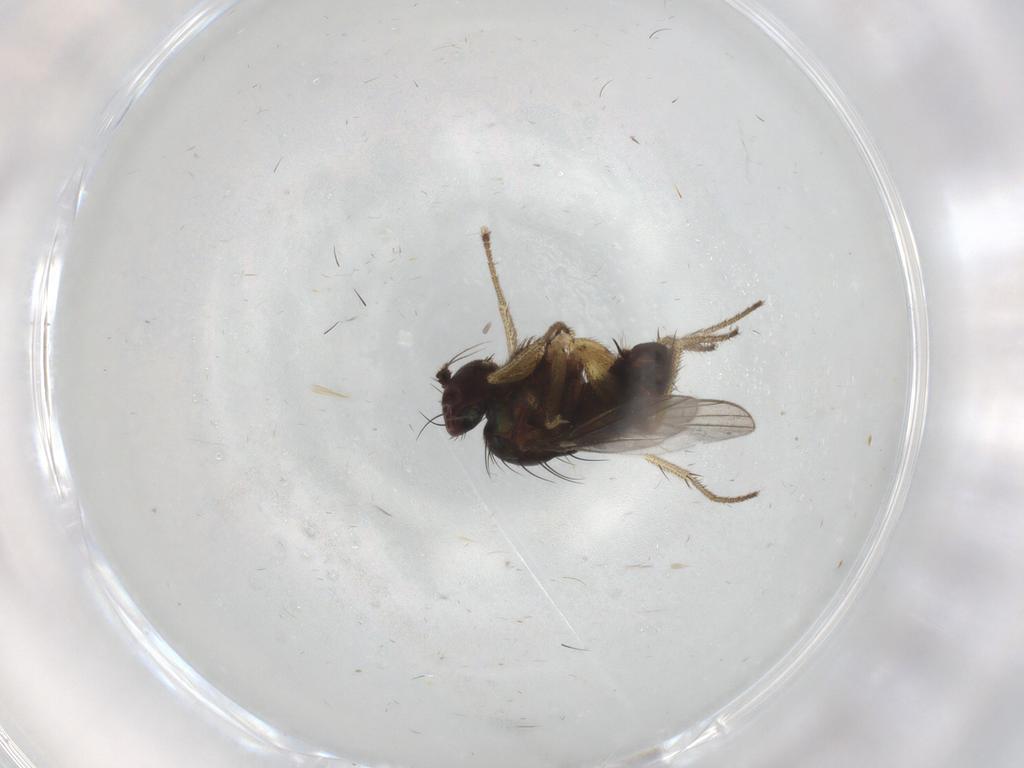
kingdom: Animalia
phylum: Arthropoda
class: Insecta
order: Diptera
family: Dolichopodidae
